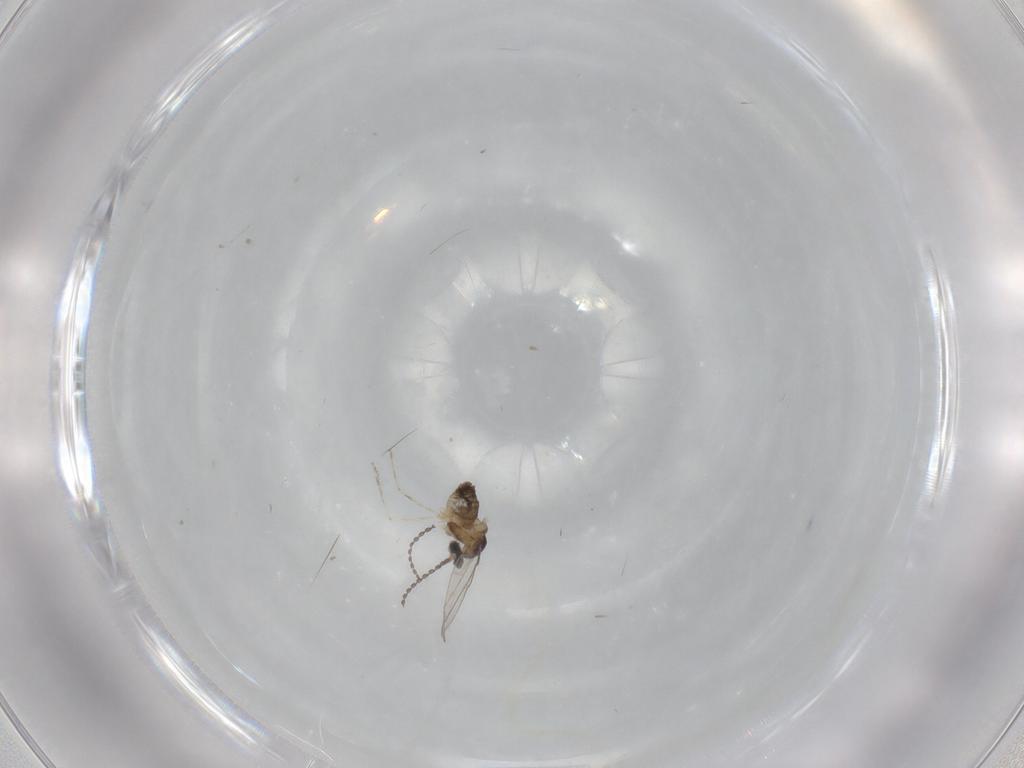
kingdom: Animalia
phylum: Arthropoda
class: Insecta
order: Diptera
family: Cecidomyiidae
